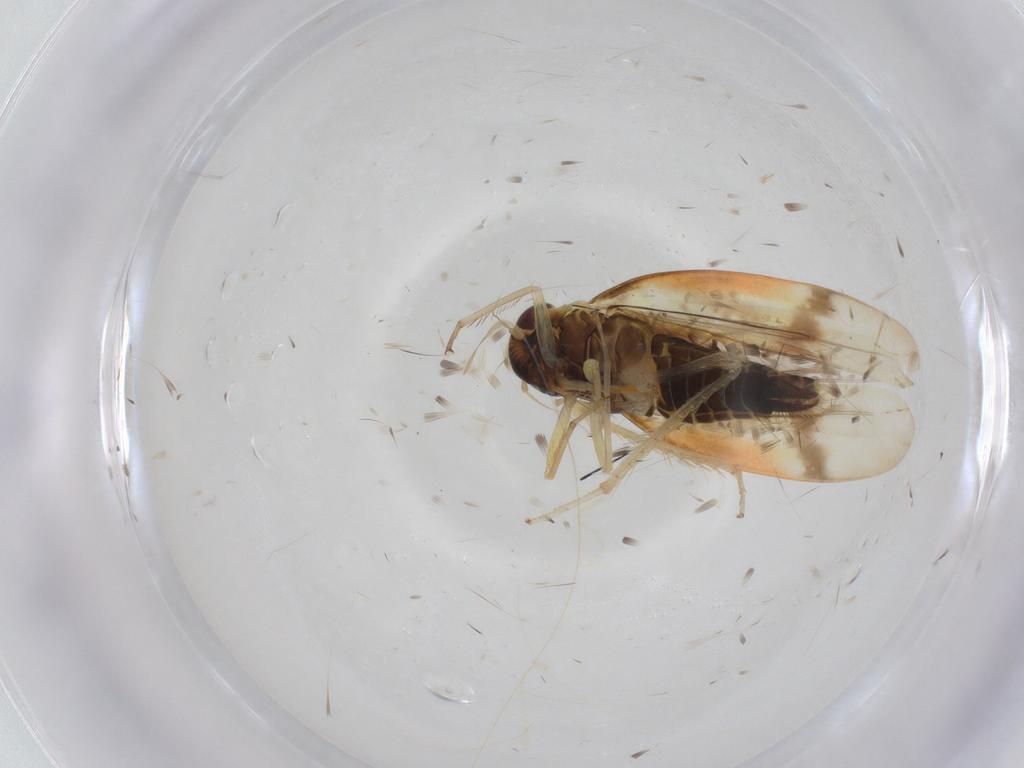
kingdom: Animalia
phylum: Arthropoda
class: Insecta
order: Hemiptera
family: Cicadellidae
